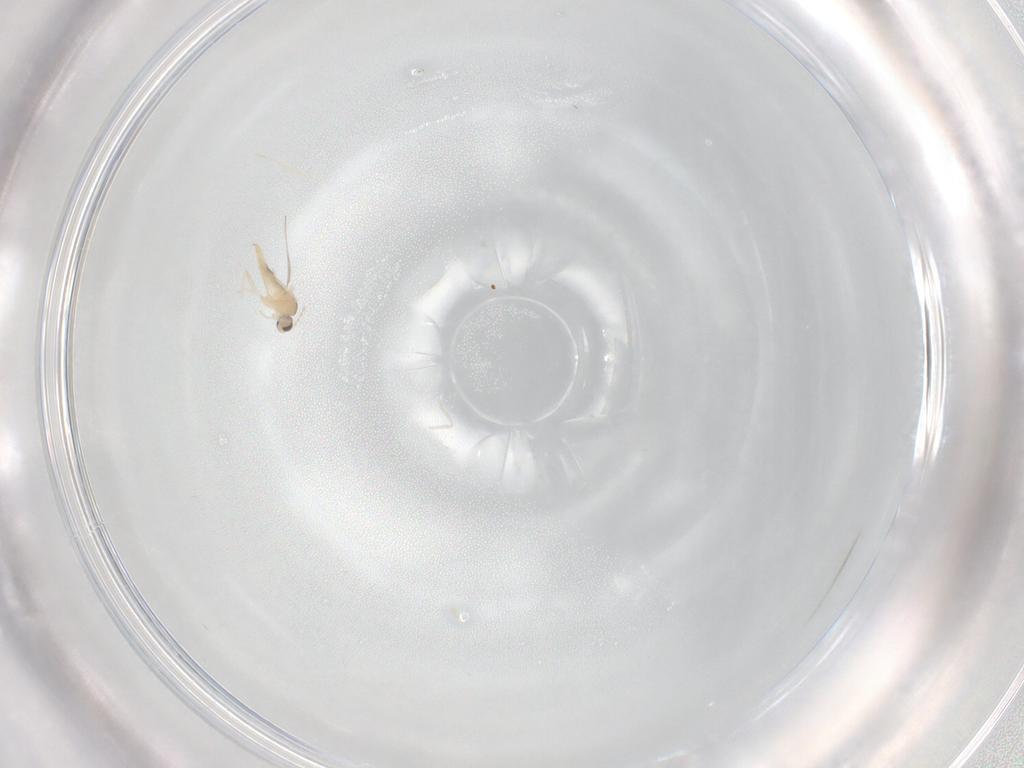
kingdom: Animalia
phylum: Arthropoda
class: Insecta
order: Diptera
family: Cecidomyiidae
